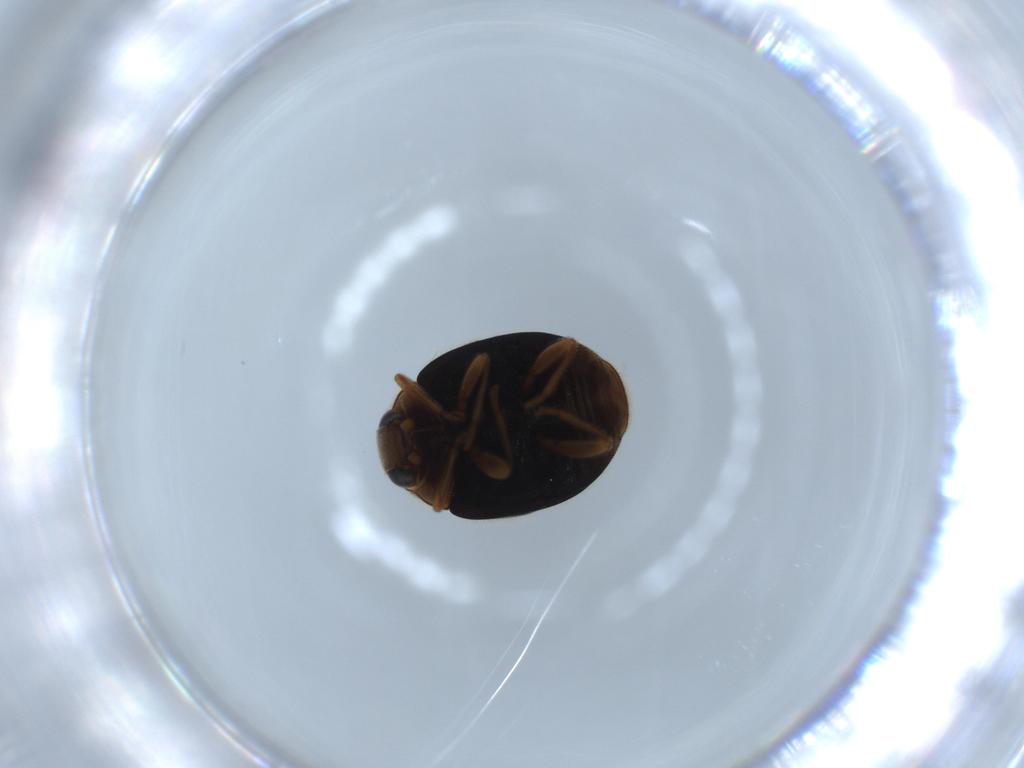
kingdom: Animalia
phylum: Arthropoda
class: Insecta
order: Coleoptera
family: Coccinellidae
